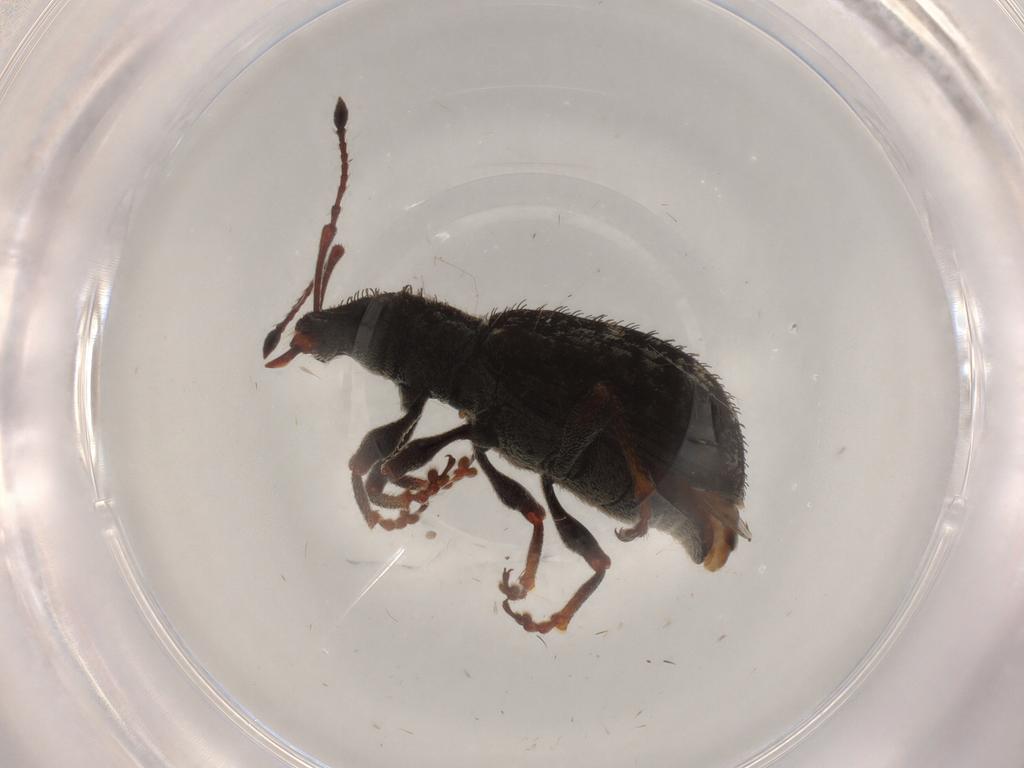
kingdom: Animalia
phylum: Arthropoda
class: Insecta
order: Coleoptera
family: Curculionidae
